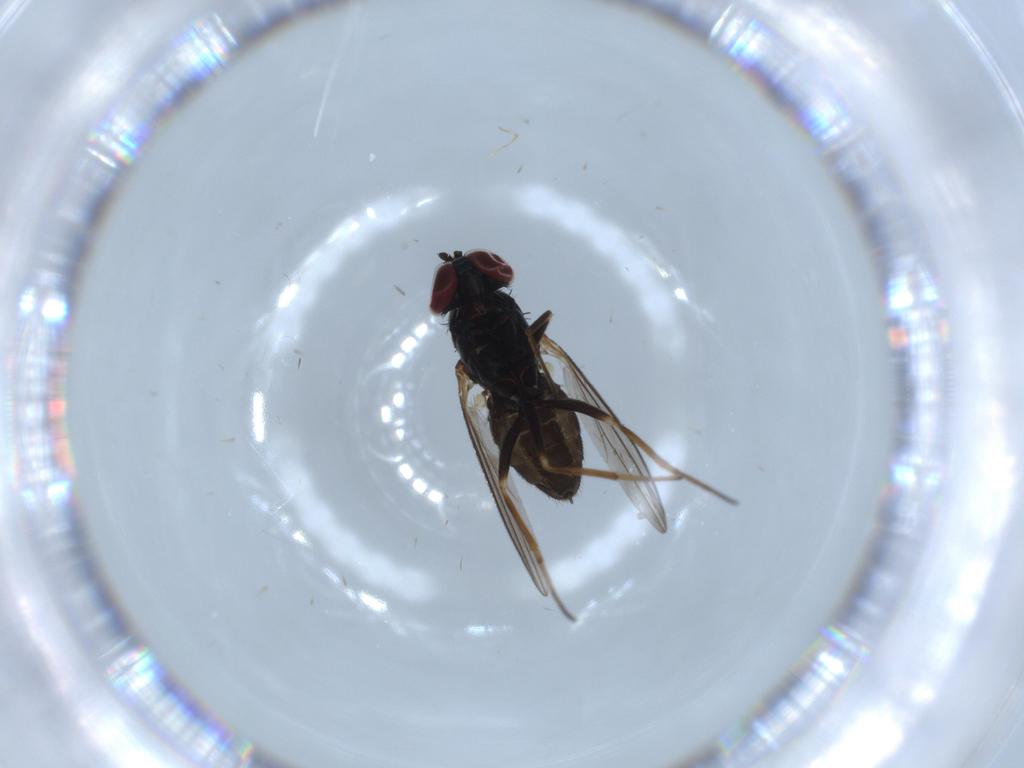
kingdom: Animalia
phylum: Arthropoda
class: Insecta
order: Diptera
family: Dolichopodidae
